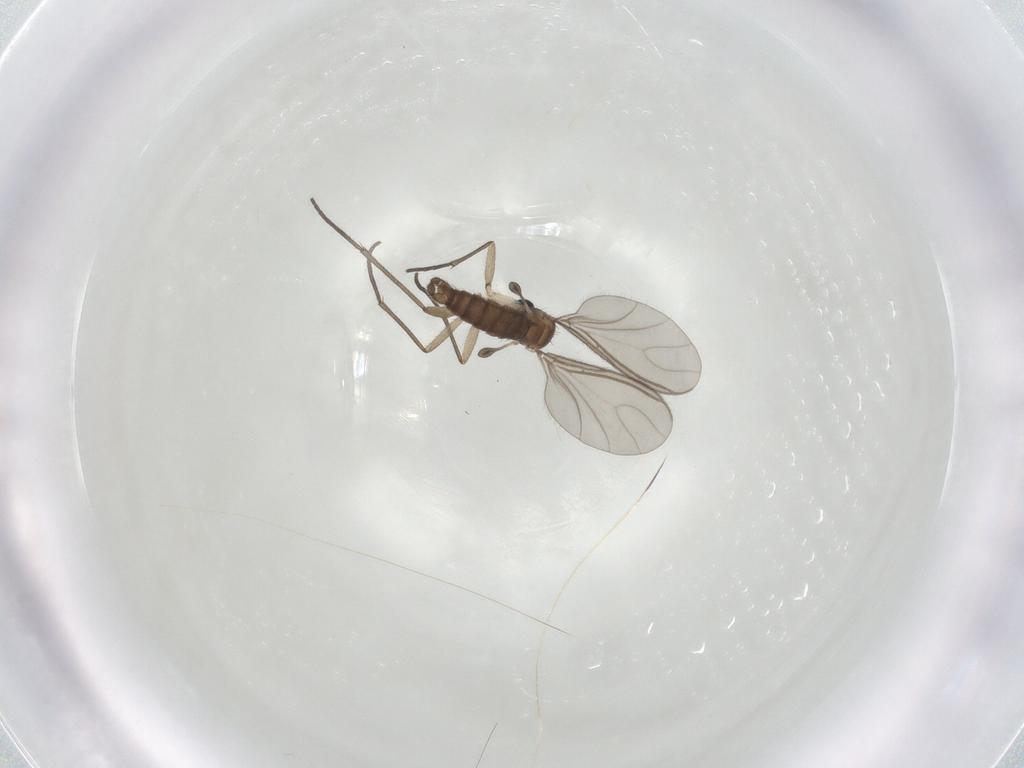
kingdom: Animalia
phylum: Arthropoda
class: Insecta
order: Diptera
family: Sciaridae
